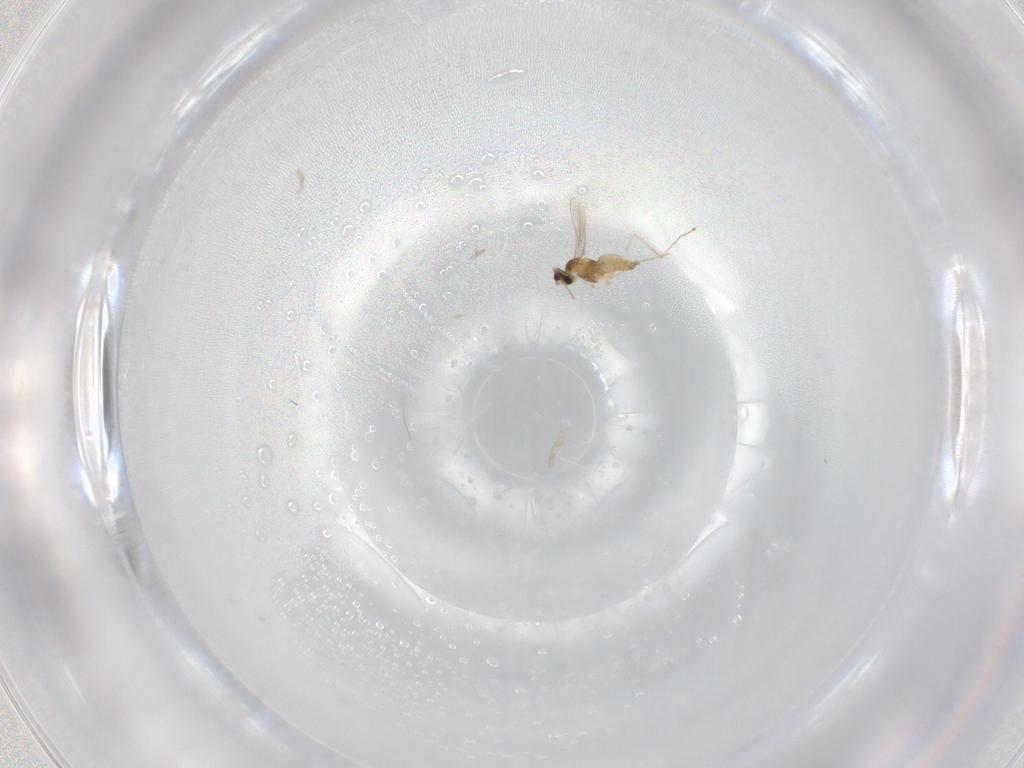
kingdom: Animalia
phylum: Arthropoda
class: Insecta
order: Diptera
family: Cecidomyiidae
